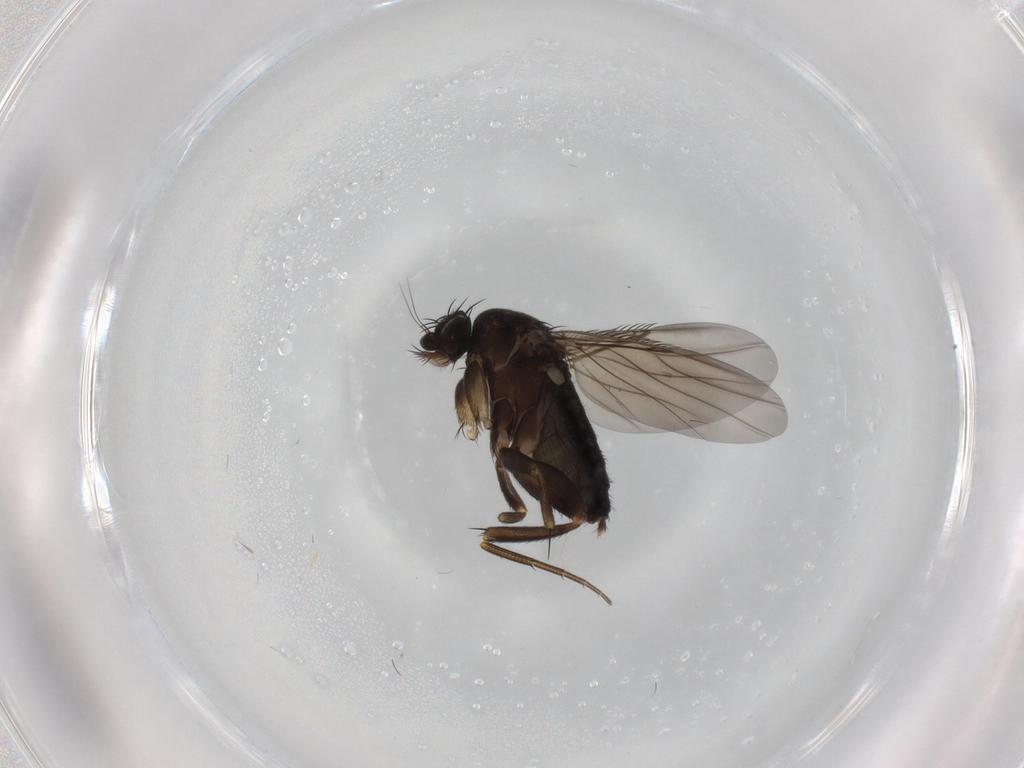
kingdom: Animalia
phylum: Arthropoda
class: Insecta
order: Diptera
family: Phoridae
